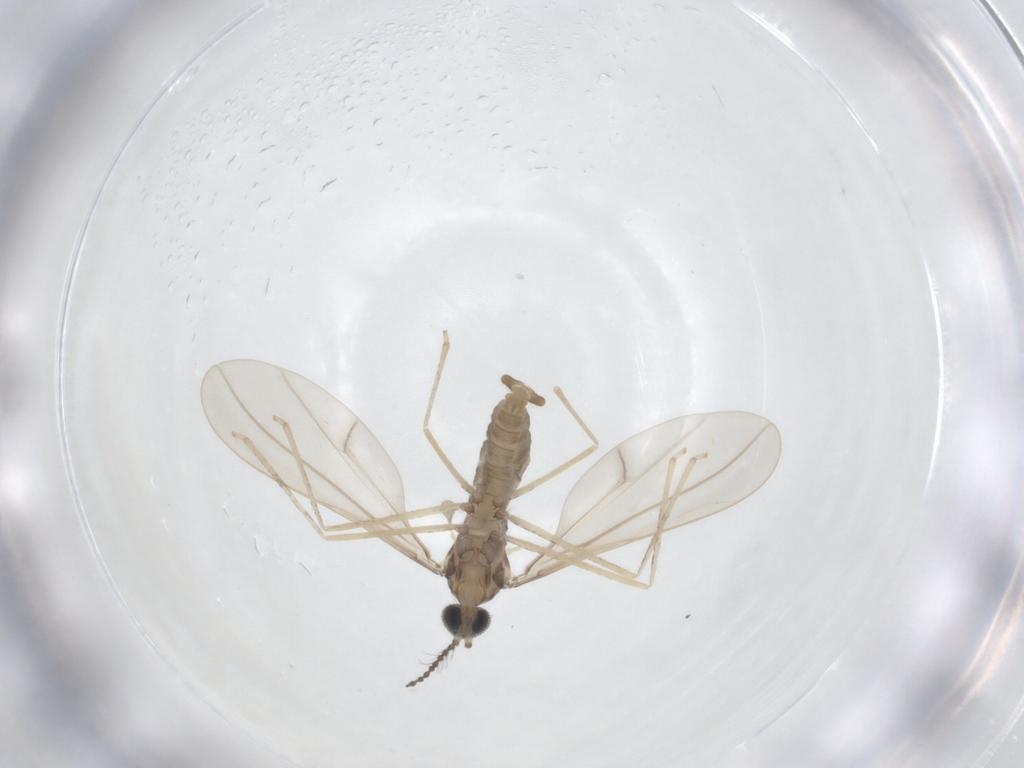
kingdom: Animalia
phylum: Arthropoda
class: Insecta
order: Diptera
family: Cecidomyiidae
